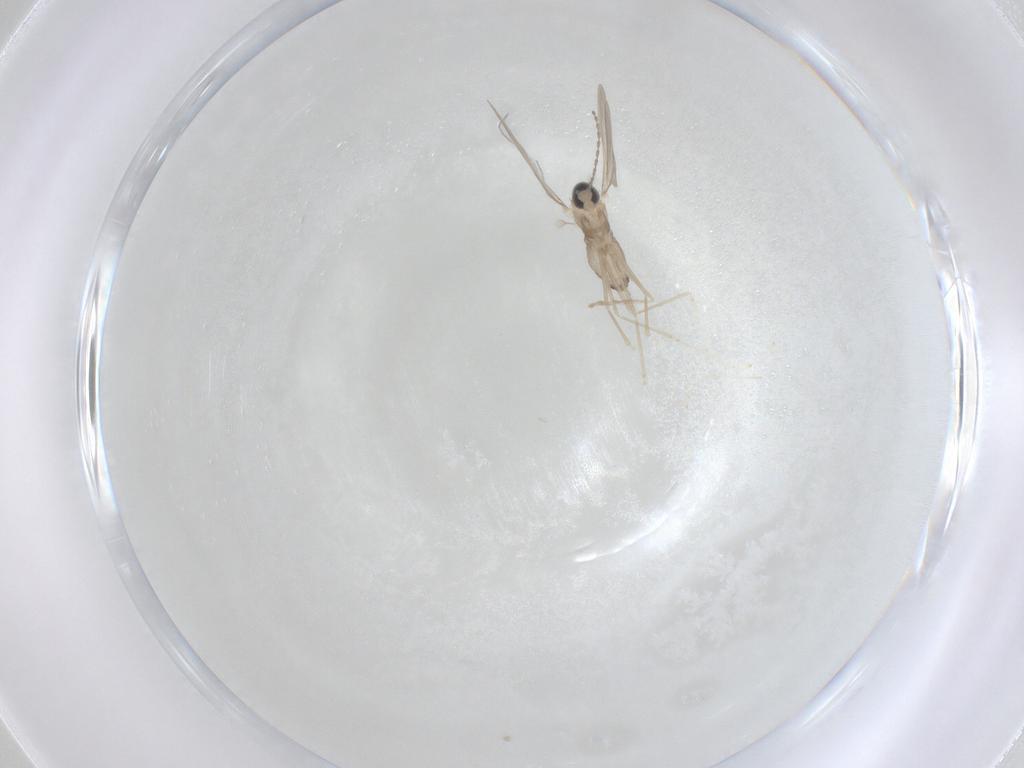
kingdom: Animalia
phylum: Arthropoda
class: Insecta
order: Diptera
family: Cecidomyiidae
